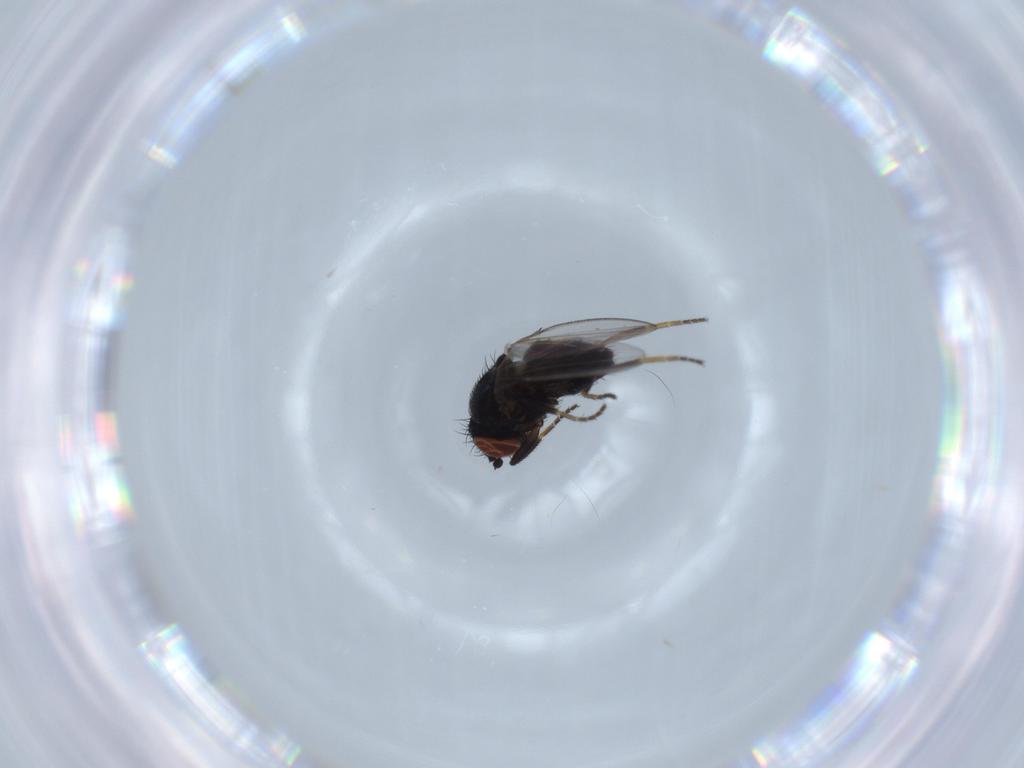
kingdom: Animalia
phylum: Arthropoda
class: Insecta
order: Diptera
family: Milichiidae
